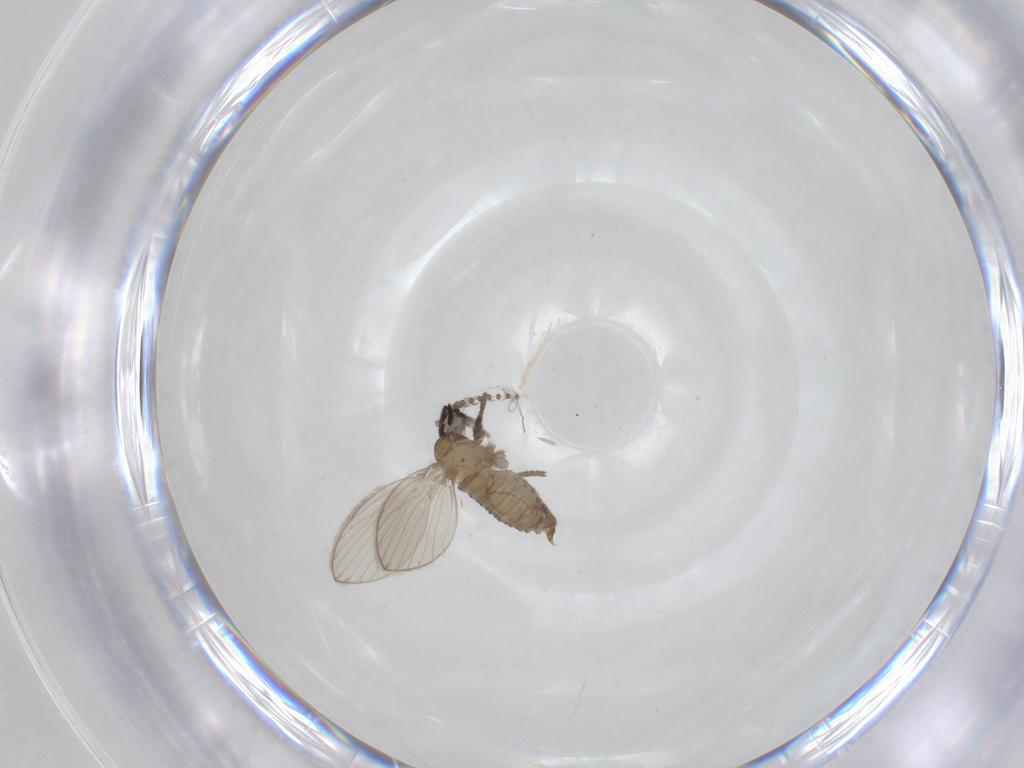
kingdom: Animalia
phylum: Arthropoda
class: Insecta
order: Diptera
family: Psychodidae
